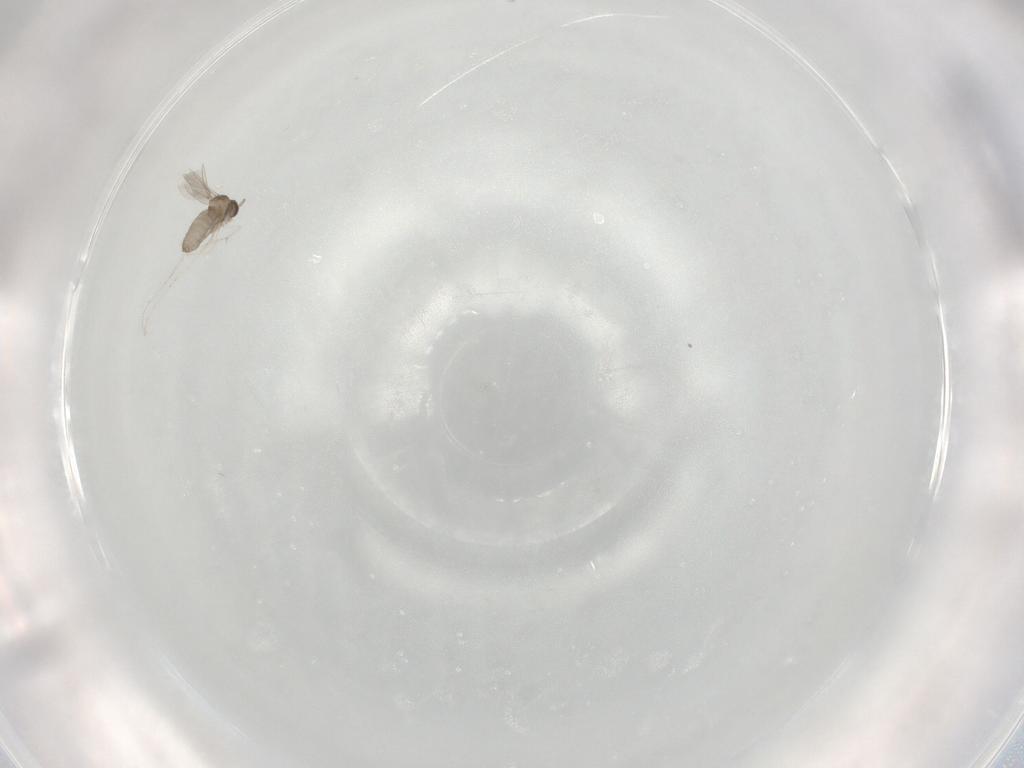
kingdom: Animalia
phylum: Arthropoda
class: Insecta
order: Diptera
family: Cecidomyiidae
